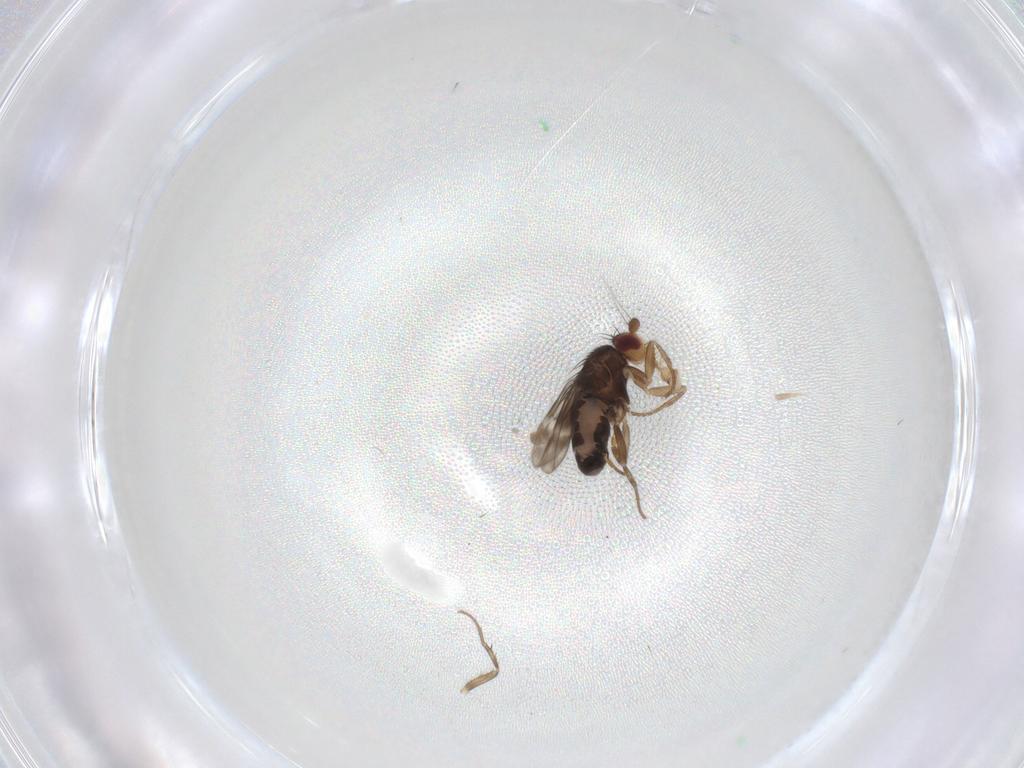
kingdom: Animalia
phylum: Arthropoda
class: Insecta
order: Diptera
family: Sphaeroceridae
